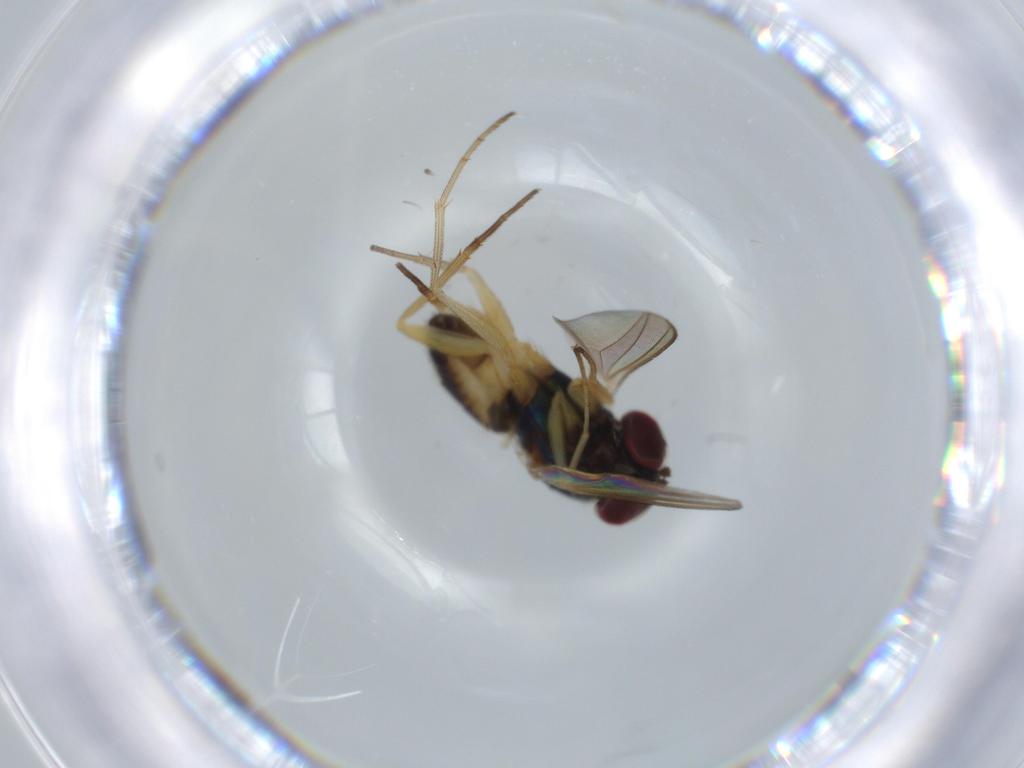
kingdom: Animalia
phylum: Arthropoda
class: Insecta
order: Diptera
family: Dolichopodidae
